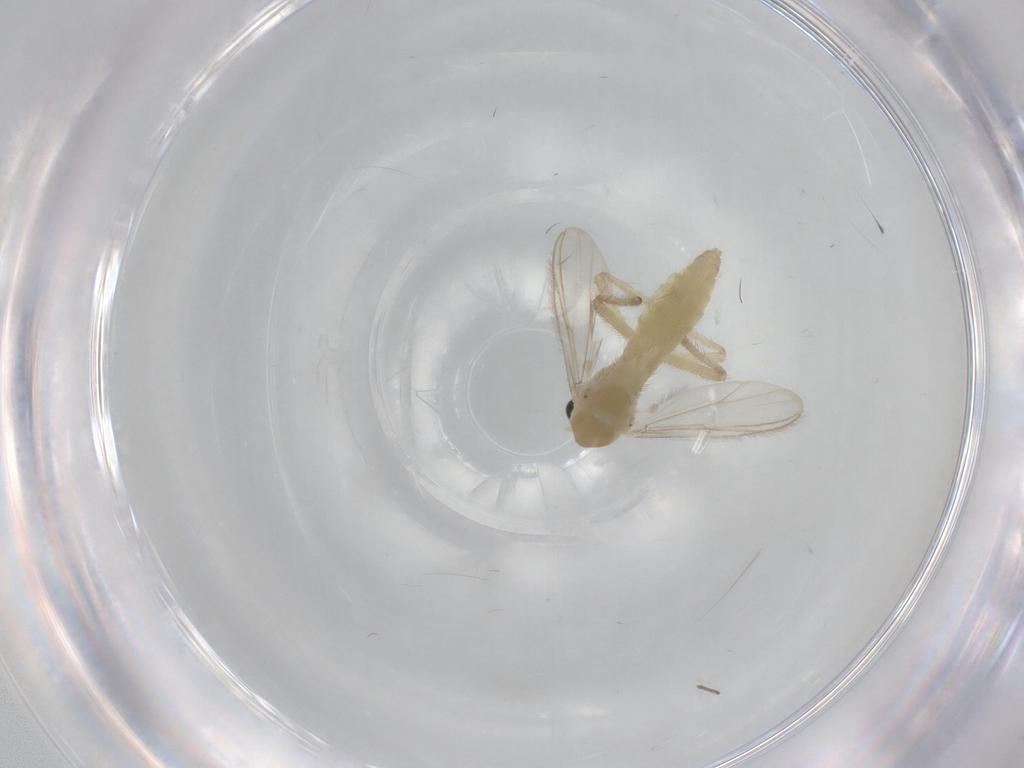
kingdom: Animalia
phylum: Arthropoda
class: Insecta
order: Diptera
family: Chironomidae
